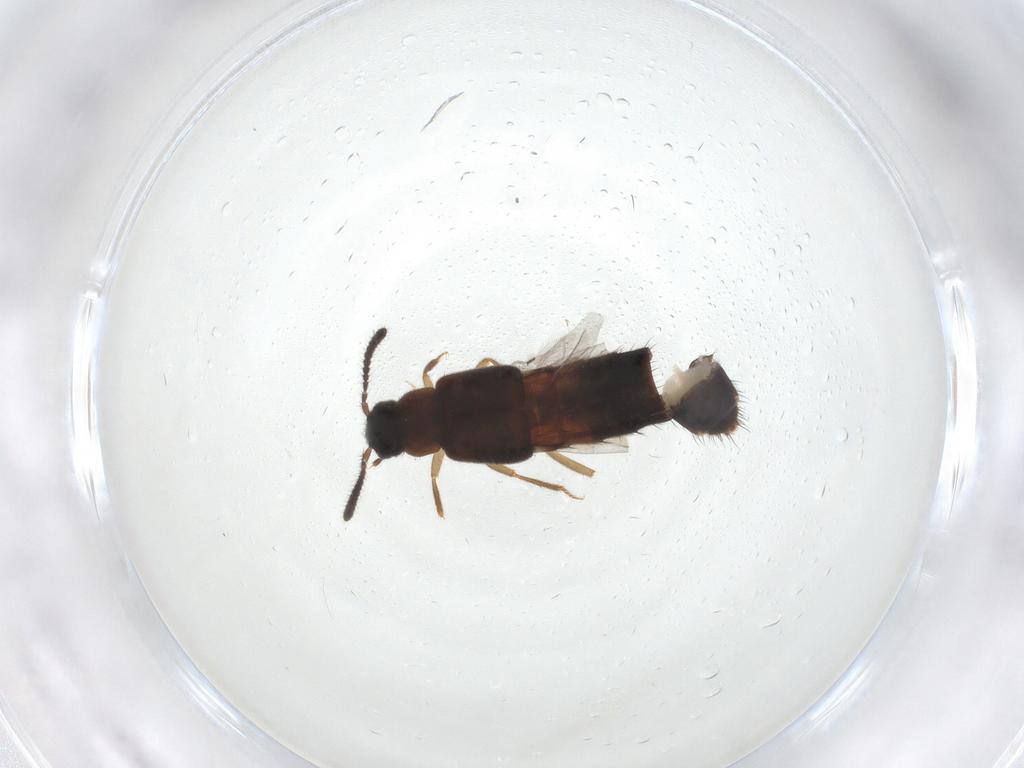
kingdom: Animalia
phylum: Arthropoda
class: Insecta
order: Coleoptera
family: Staphylinidae
